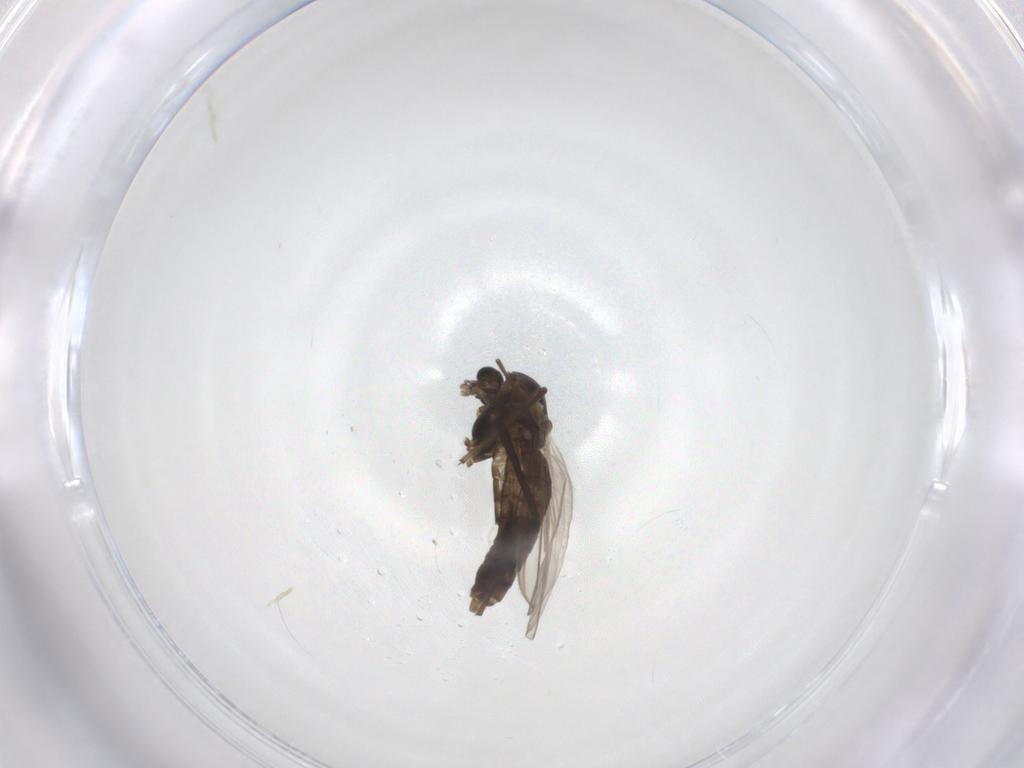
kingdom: Animalia
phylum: Arthropoda
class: Insecta
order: Diptera
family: Chironomidae
